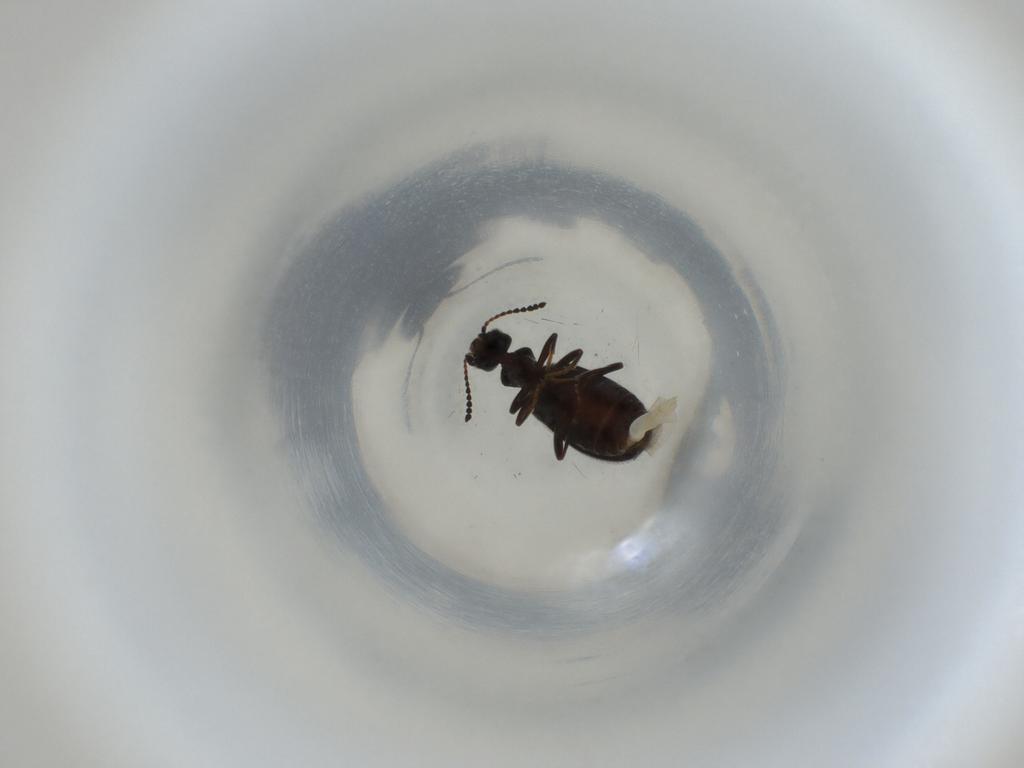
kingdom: Animalia
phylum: Arthropoda
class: Insecta
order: Coleoptera
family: Anthicidae
